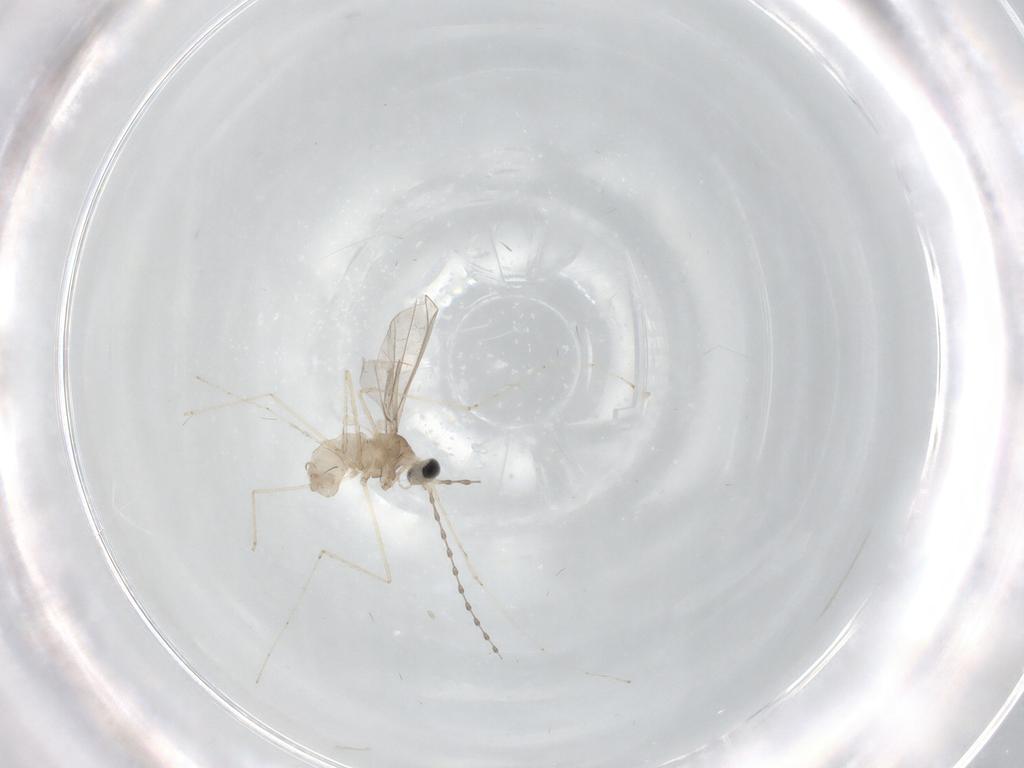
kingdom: Animalia
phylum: Arthropoda
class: Insecta
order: Diptera
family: Cecidomyiidae
